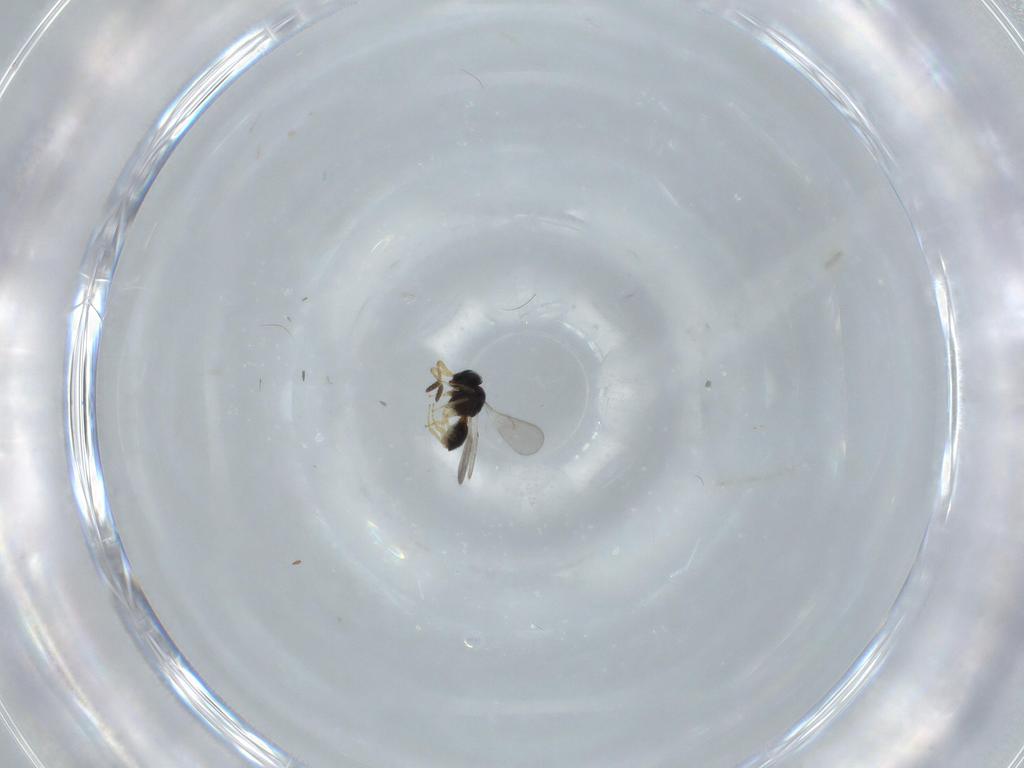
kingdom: Animalia
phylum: Arthropoda
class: Insecta
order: Hymenoptera
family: Scelionidae
